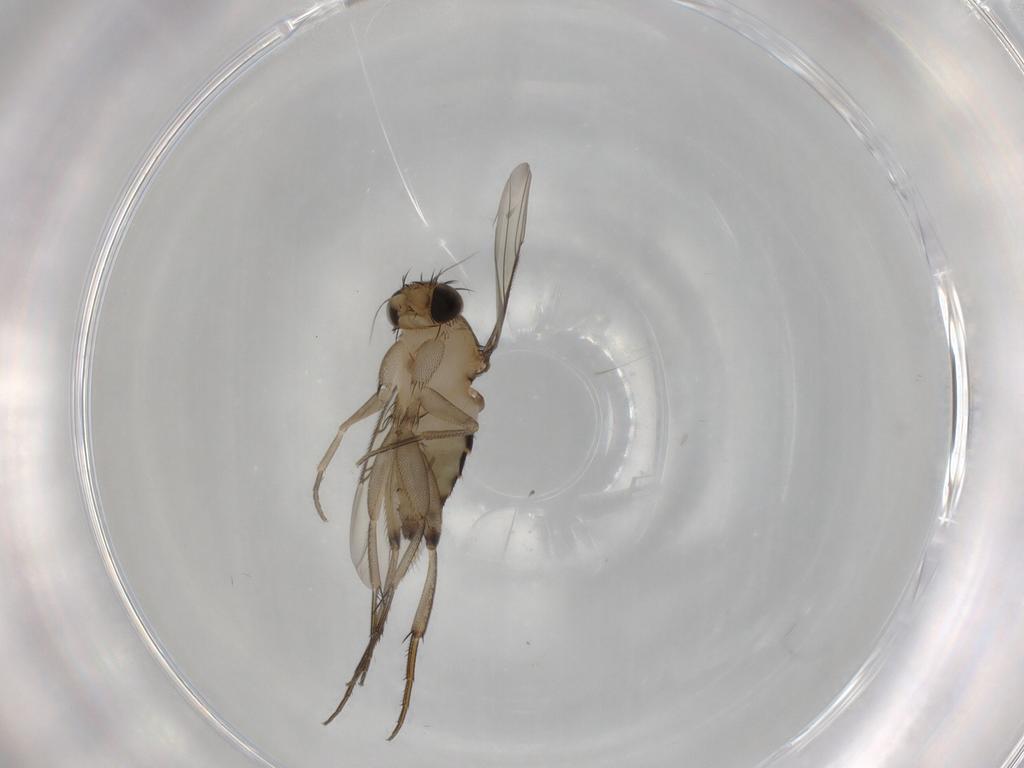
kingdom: Animalia
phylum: Arthropoda
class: Insecta
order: Diptera
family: Phoridae
